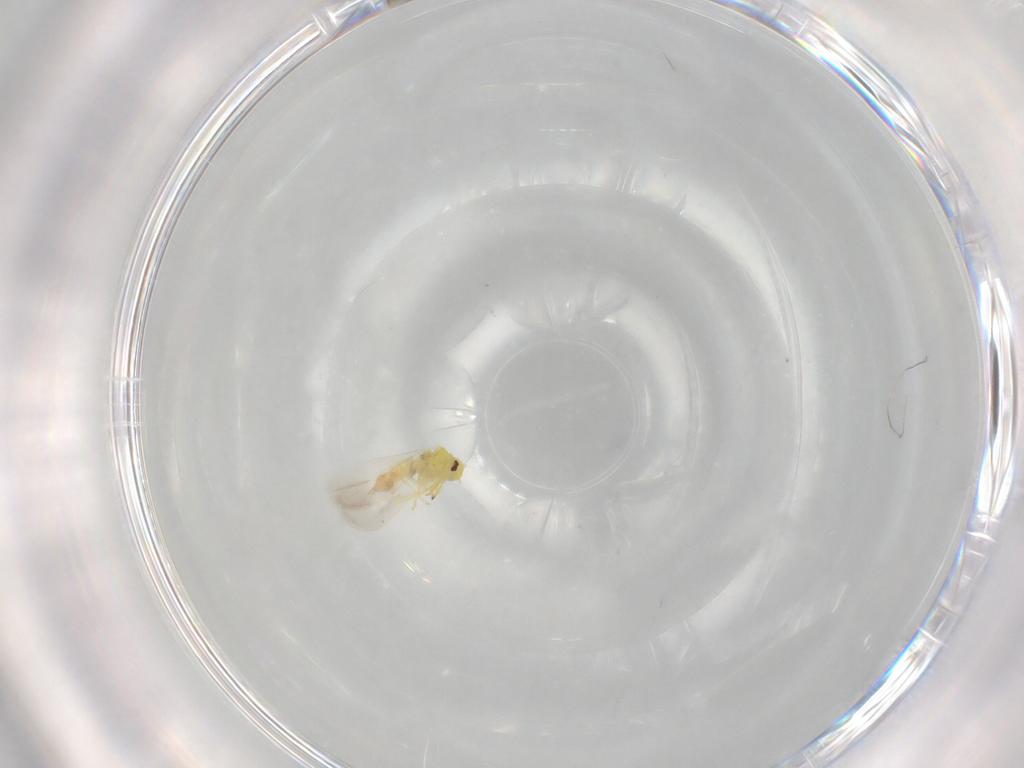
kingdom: Animalia
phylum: Arthropoda
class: Insecta
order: Hemiptera
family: Aleyrodidae
